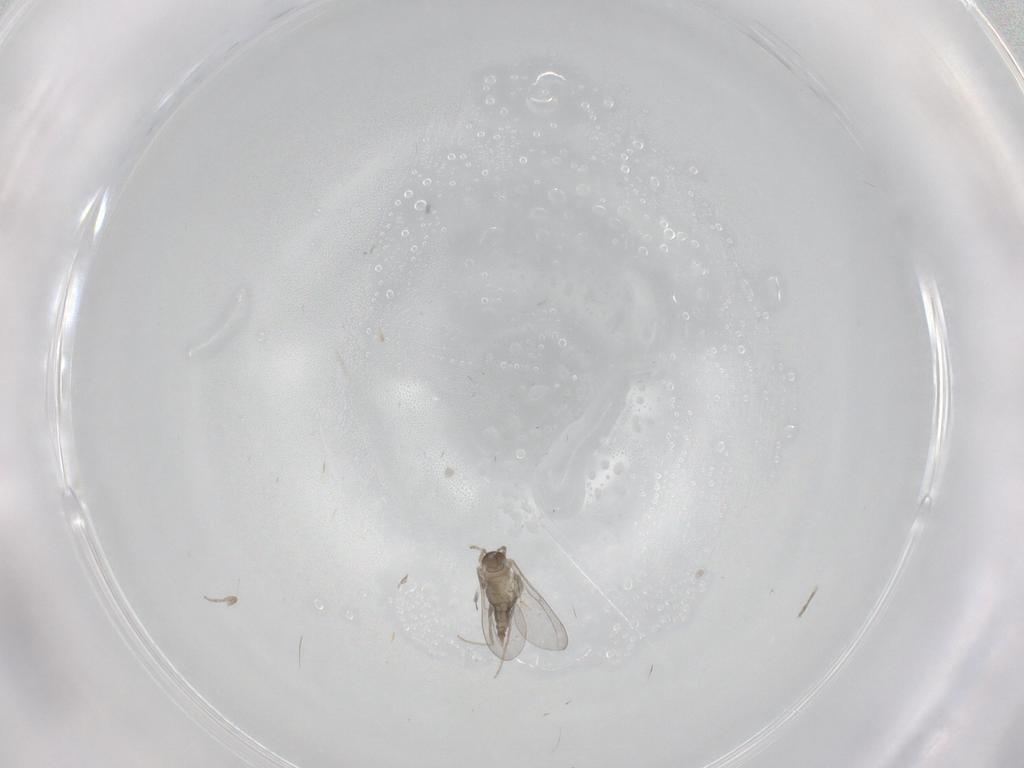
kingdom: Animalia
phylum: Arthropoda
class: Insecta
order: Diptera
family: Cecidomyiidae
